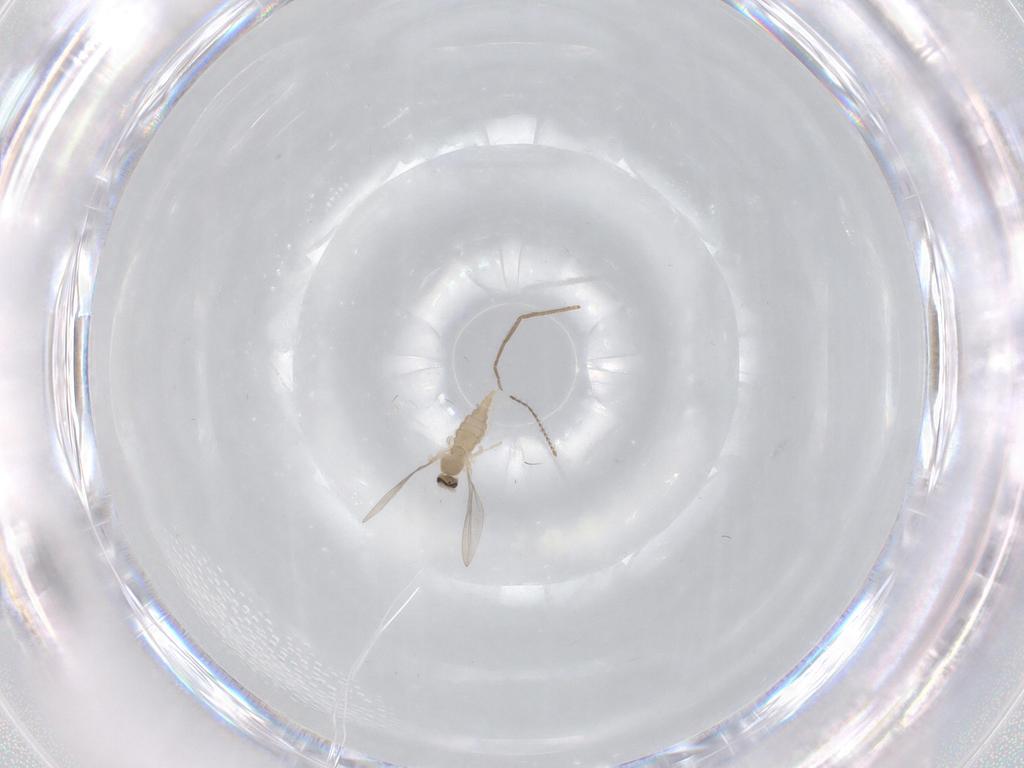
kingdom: Animalia
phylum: Arthropoda
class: Insecta
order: Diptera
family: Cecidomyiidae
